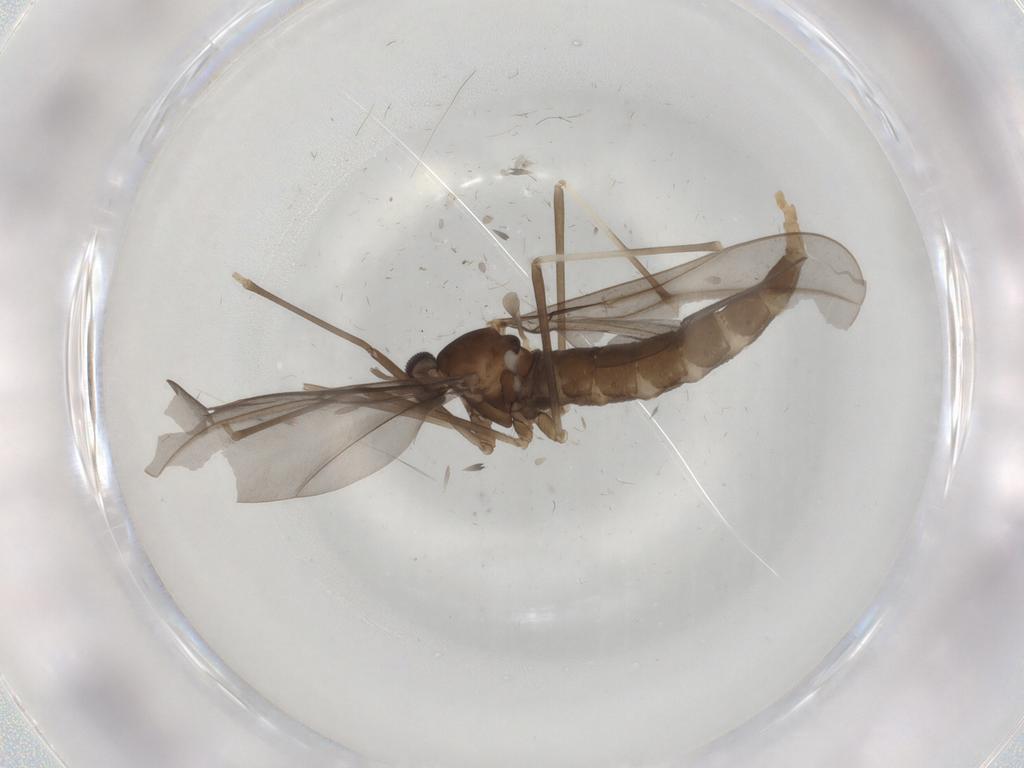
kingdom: Animalia
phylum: Arthropoda
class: Insecta
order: Diptera
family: Cecidomyiidae
